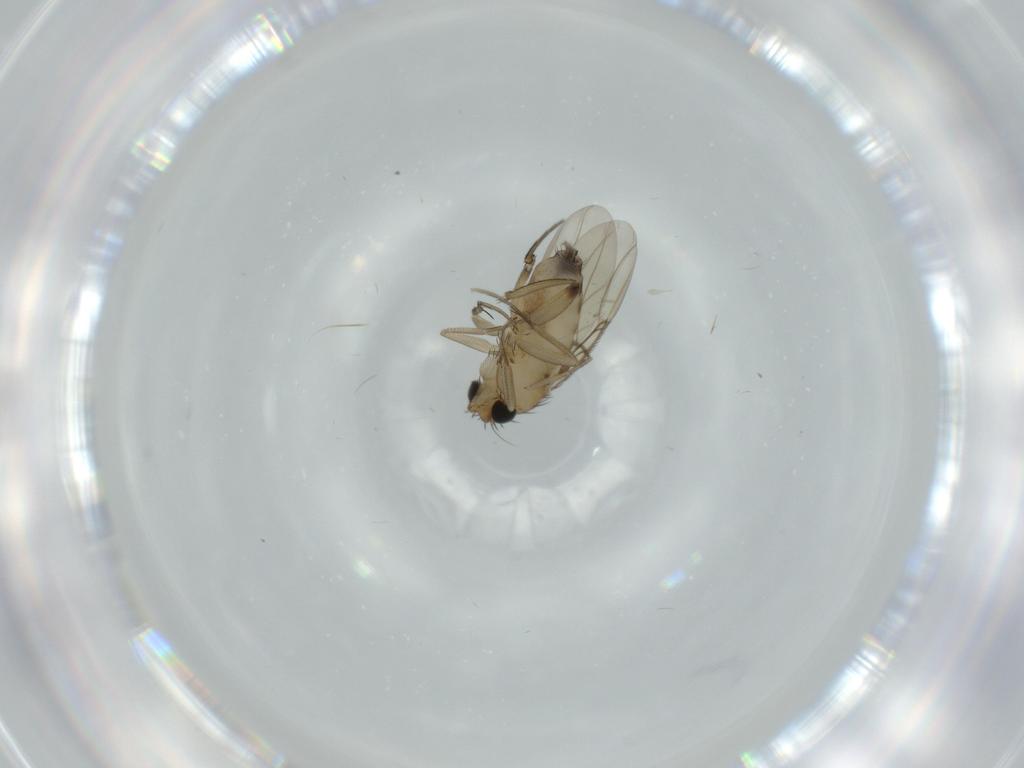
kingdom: Animalia
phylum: Arthropoda
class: Insecta
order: Diptera
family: Phoridae
